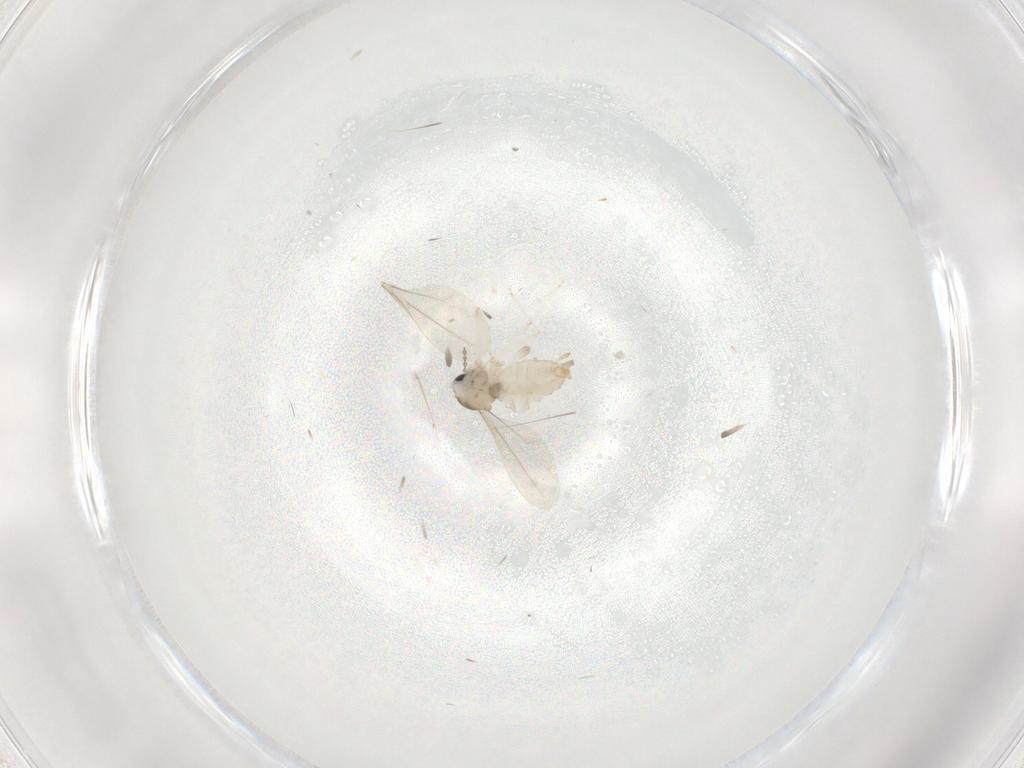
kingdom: Animalia
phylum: Arthropoda
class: Insecta
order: Diptera
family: Cecidomyiidae
